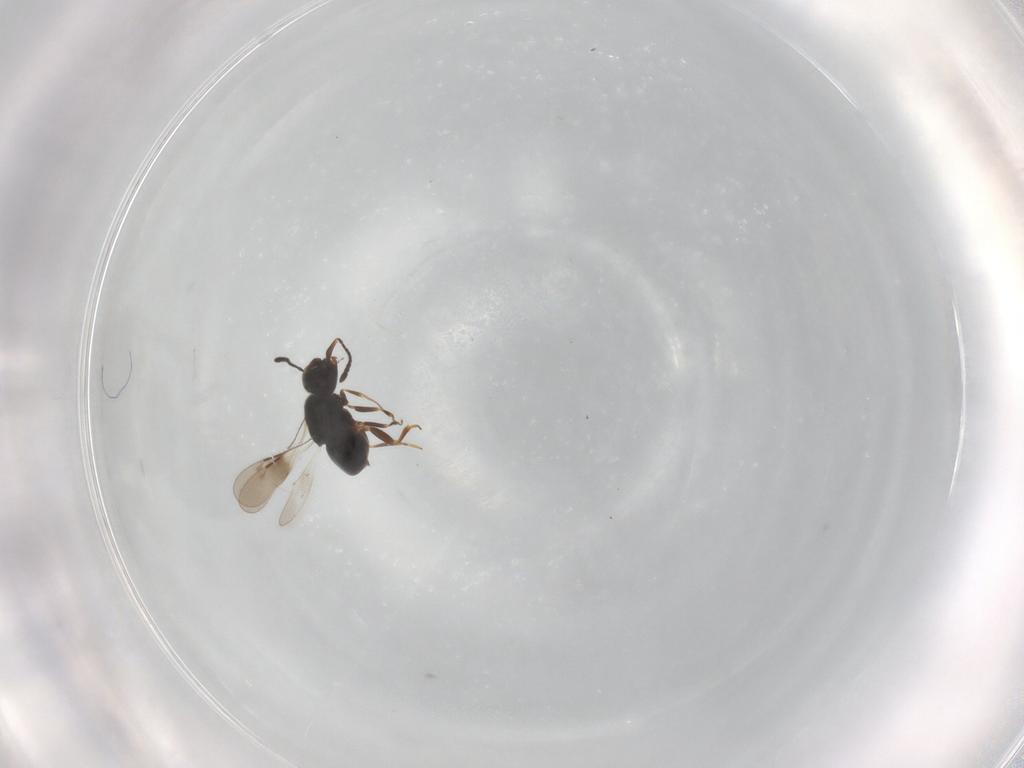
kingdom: Animalia
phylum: Arthropoda
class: Insecta
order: Hymenoptera
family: Ceraphronidae
